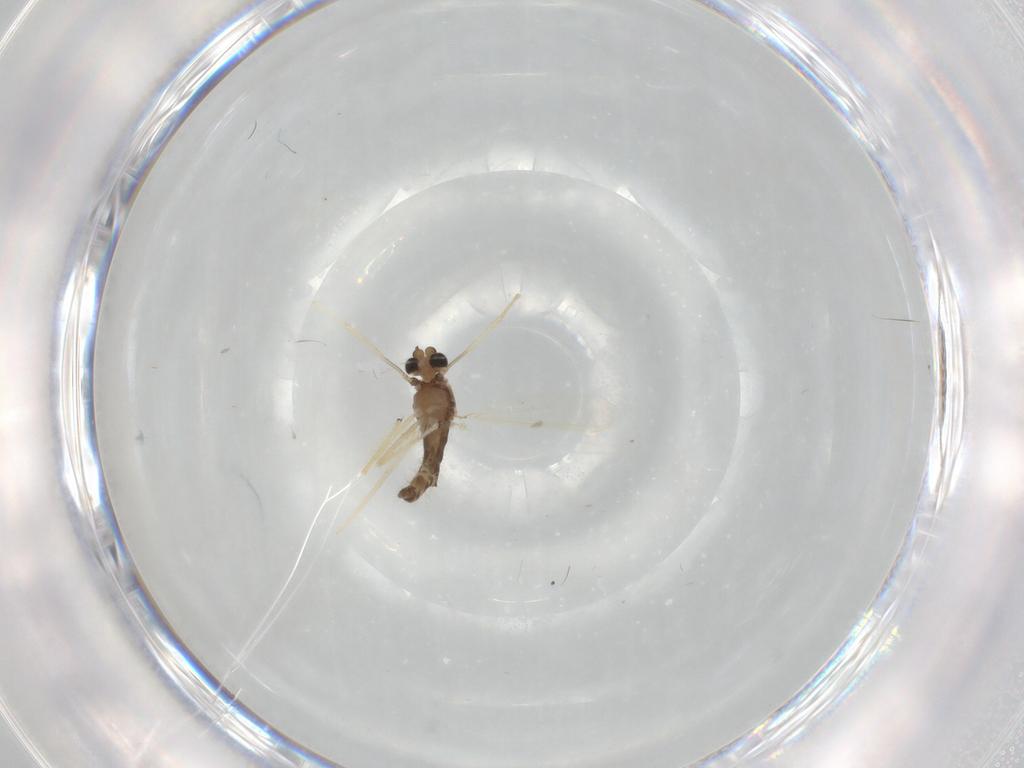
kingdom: Animalia
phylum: Arthropoda
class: Insecta
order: Diptera
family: Chironomidae
